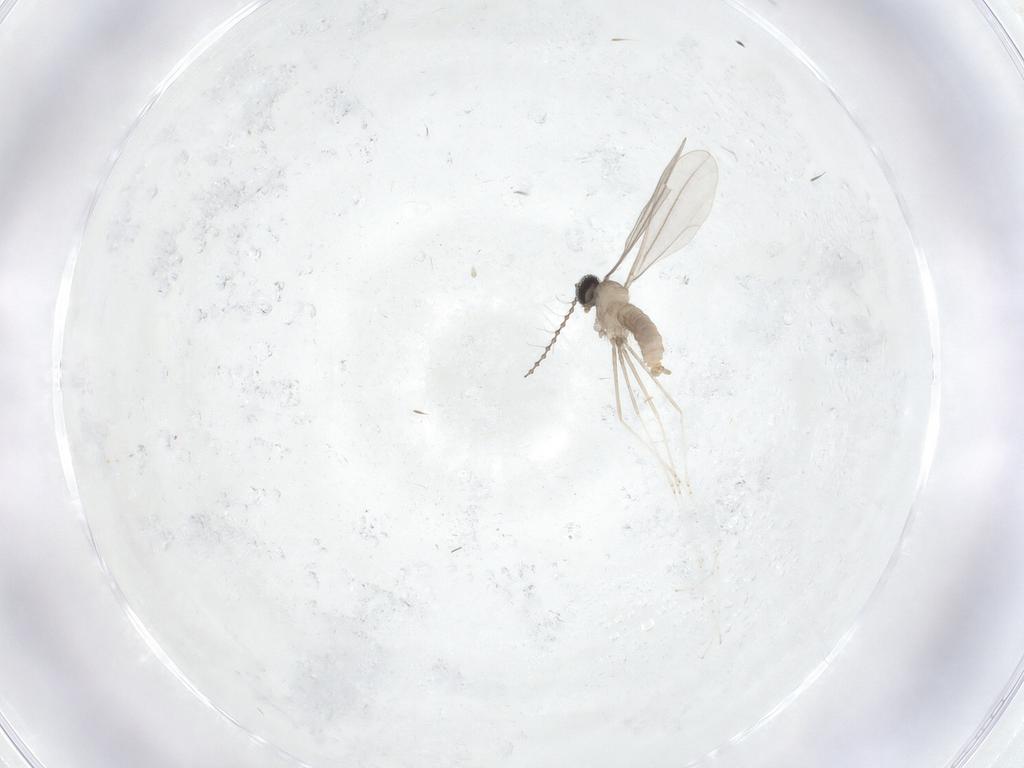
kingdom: Animalia
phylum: Arthropoda
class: Insecta
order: Diptera
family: Cecidomyiidae
